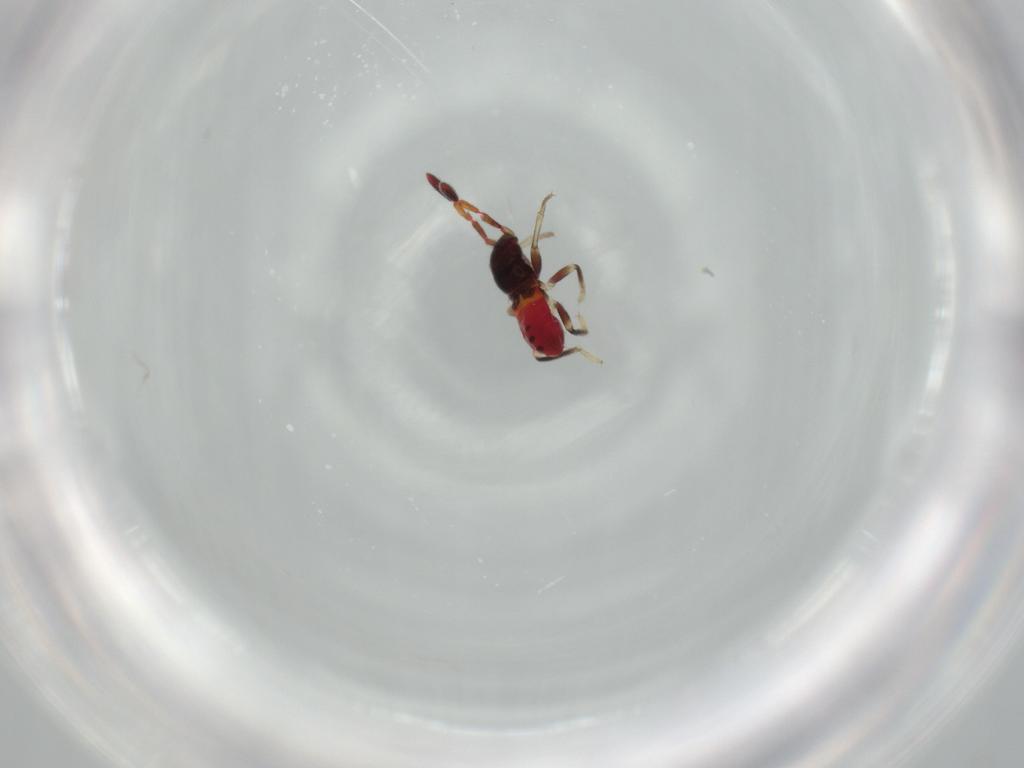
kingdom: Animalia
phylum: Arthropoda
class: Insecta
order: Hemiptera
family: Rhyparochromidae
